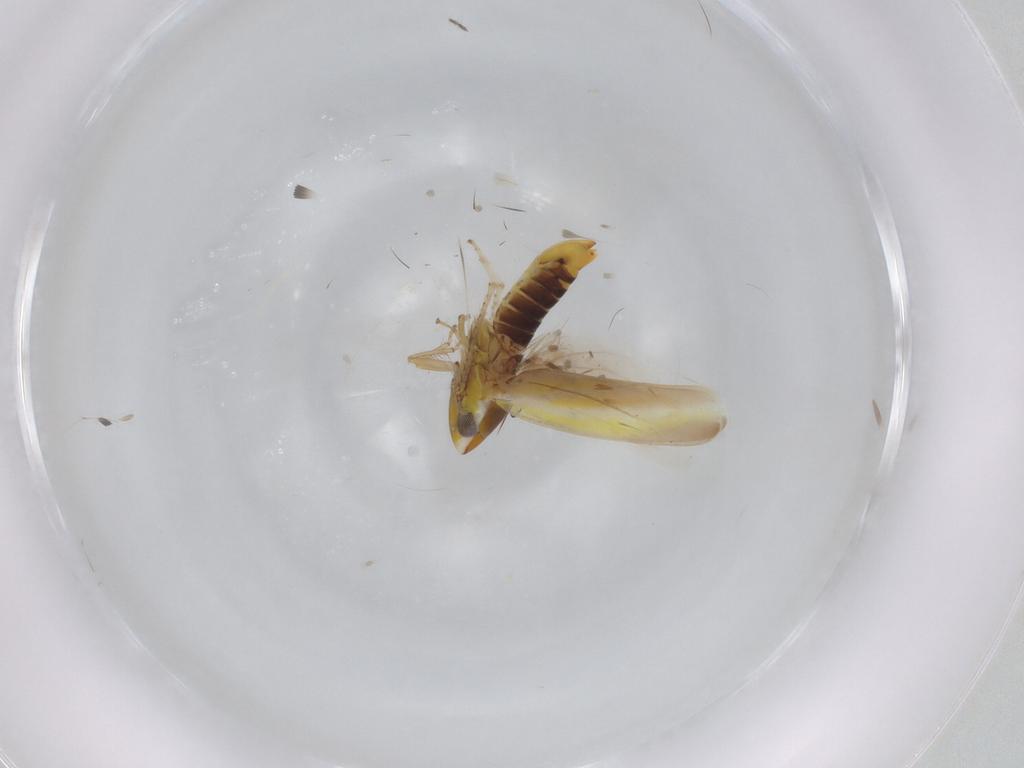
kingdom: Animalia
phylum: Arthropoda
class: Insecta
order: Hemiptera
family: Cicadellidae
